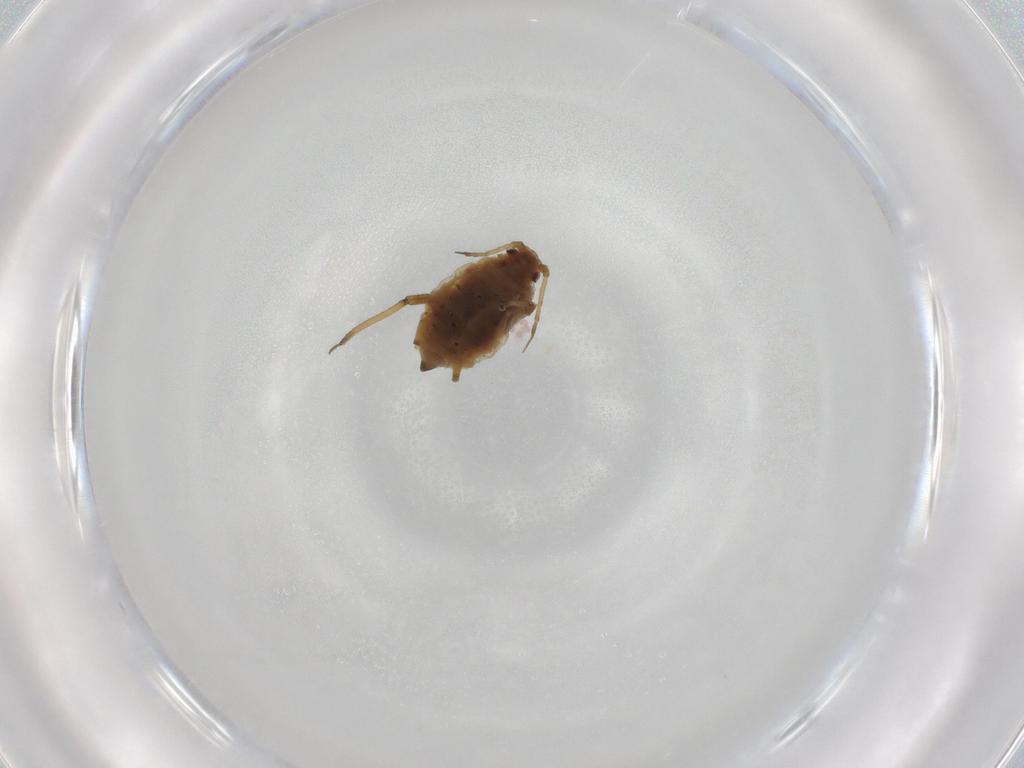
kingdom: Animalia
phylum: Arthropoda
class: Insecta
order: Hemiptera
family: Aphididae
